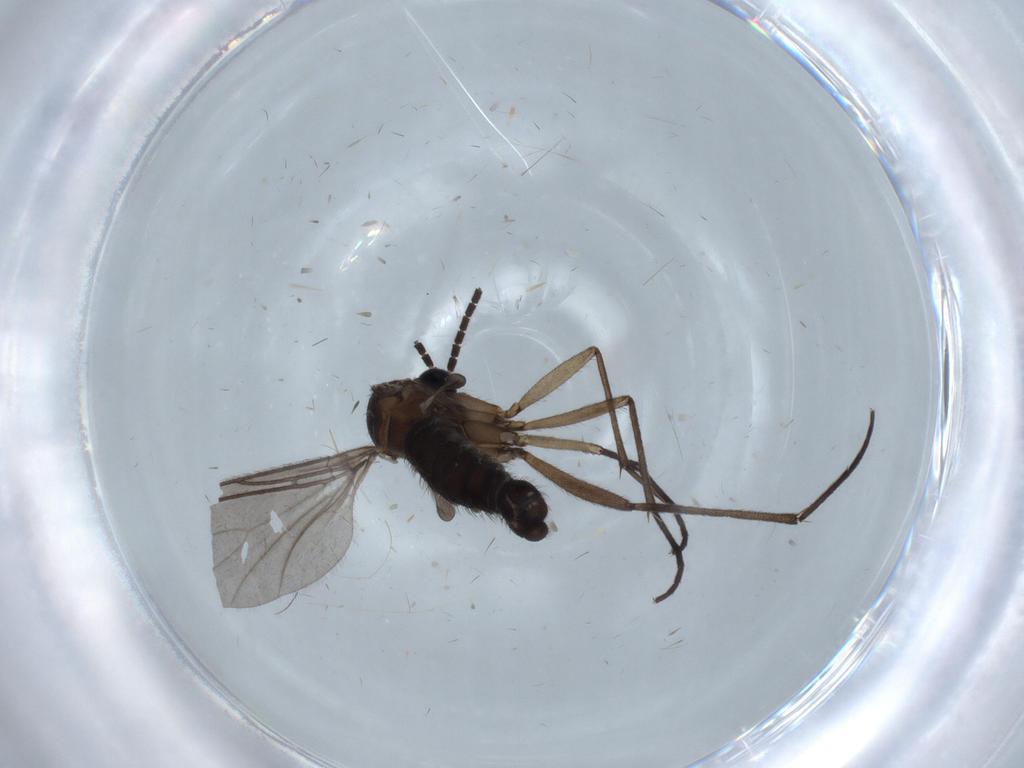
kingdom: Animalia
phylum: Arthropoda
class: Insecta
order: Diptera
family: Sciaridae
